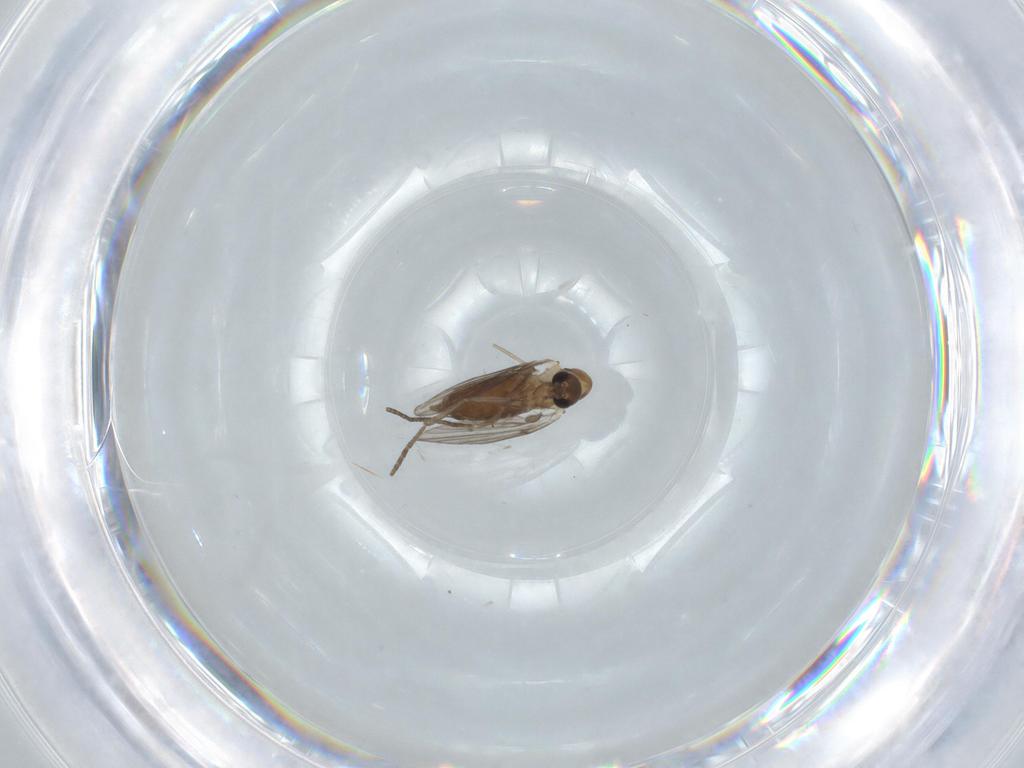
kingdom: Animalia
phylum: Arthropoda
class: Insecta
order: Diptera
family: Psychodidae
